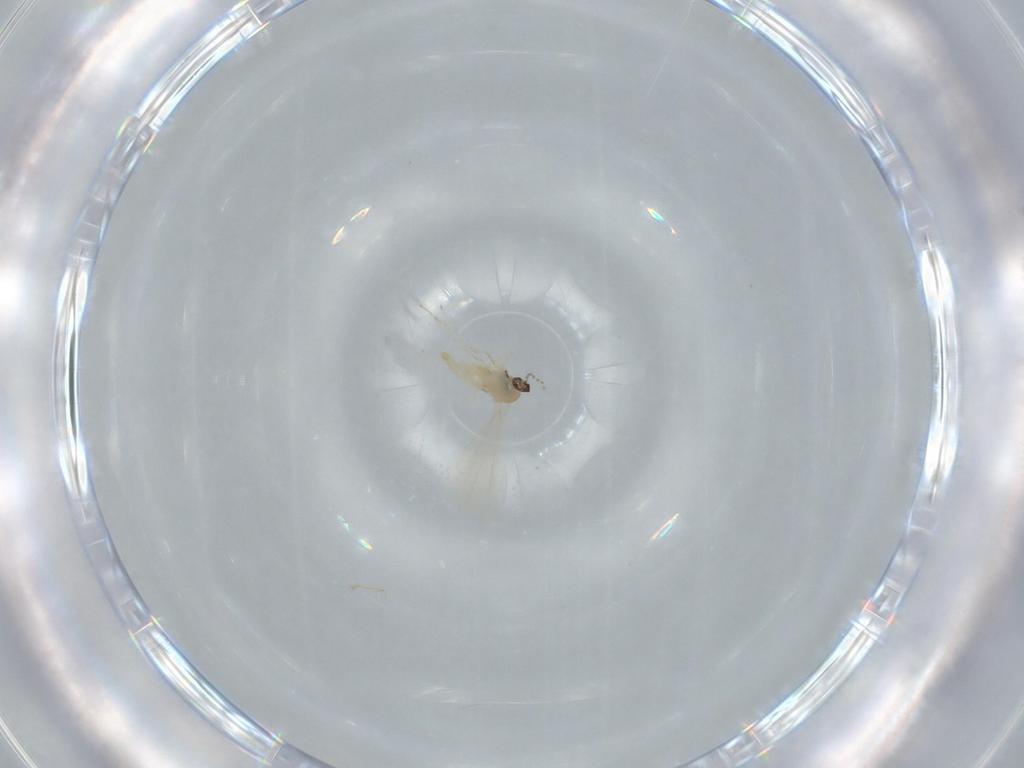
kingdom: Animalia
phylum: Arthropoda
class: Insecta
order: Diptera
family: Cecidomyiidae
